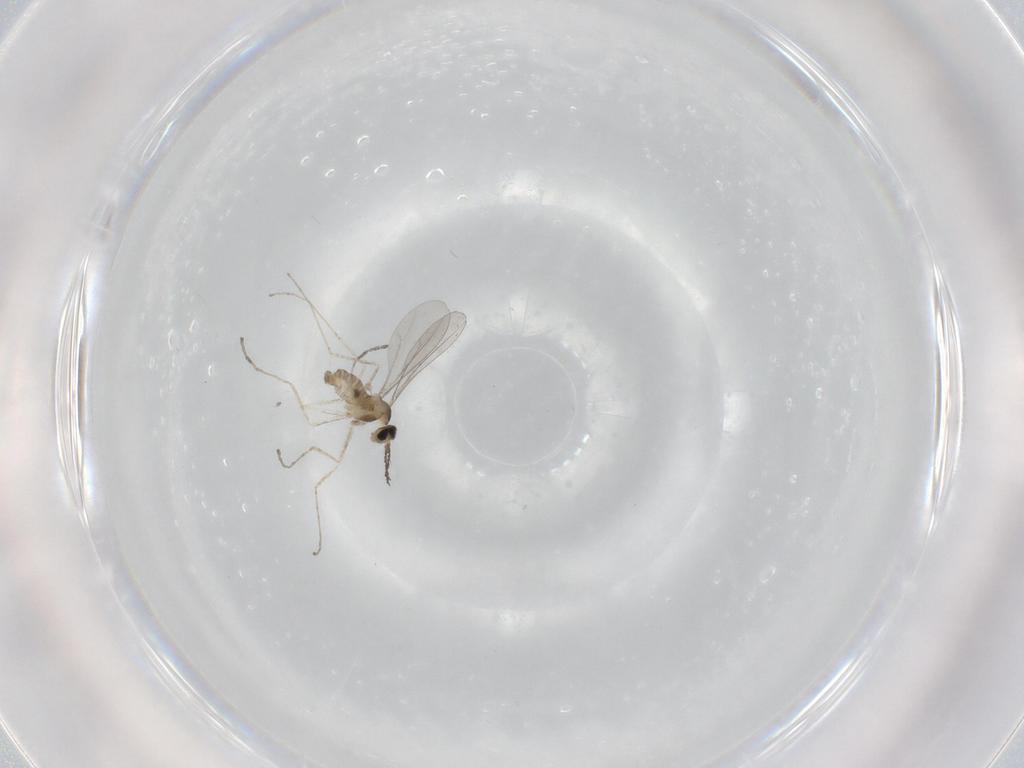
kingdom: Animalia
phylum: Arthropoda
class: Insecta
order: Diptera
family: Cecidomyiidae
